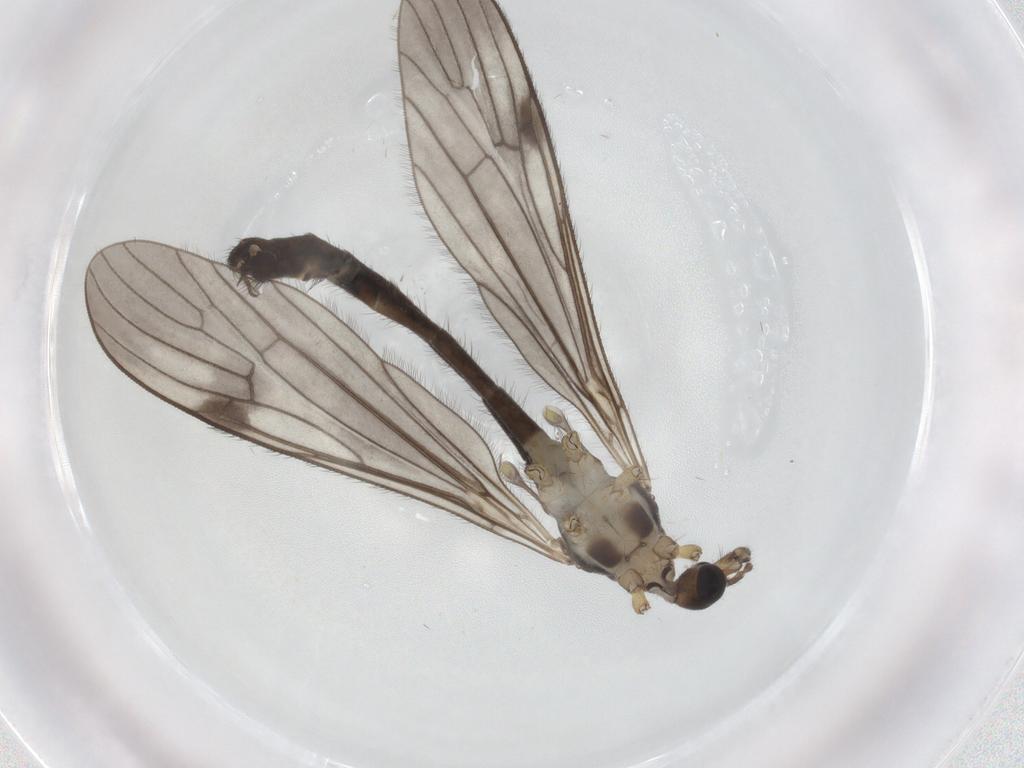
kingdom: Animalia
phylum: Arthropoda
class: Insecta
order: Diptera
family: Limoniidae
